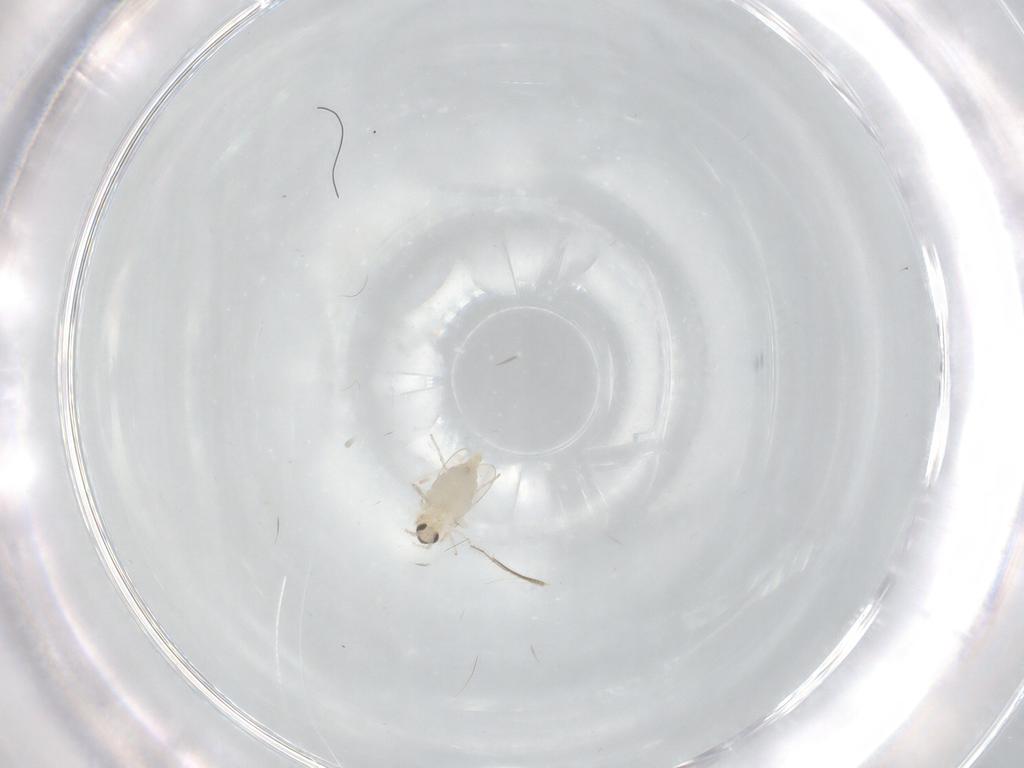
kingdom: Animalia
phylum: Arthropoda
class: Insecta
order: Diptera
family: Cecidomyiidae
